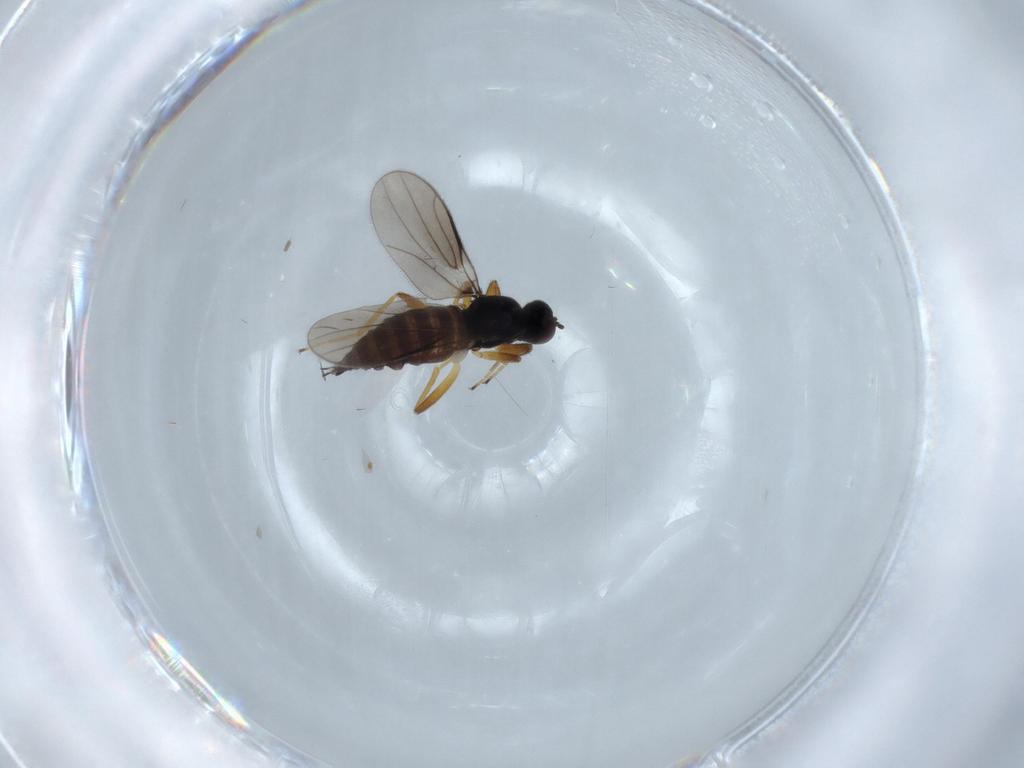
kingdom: Animalia
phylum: Arthropoda
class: Insecta
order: Diptera
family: Hybotidae
